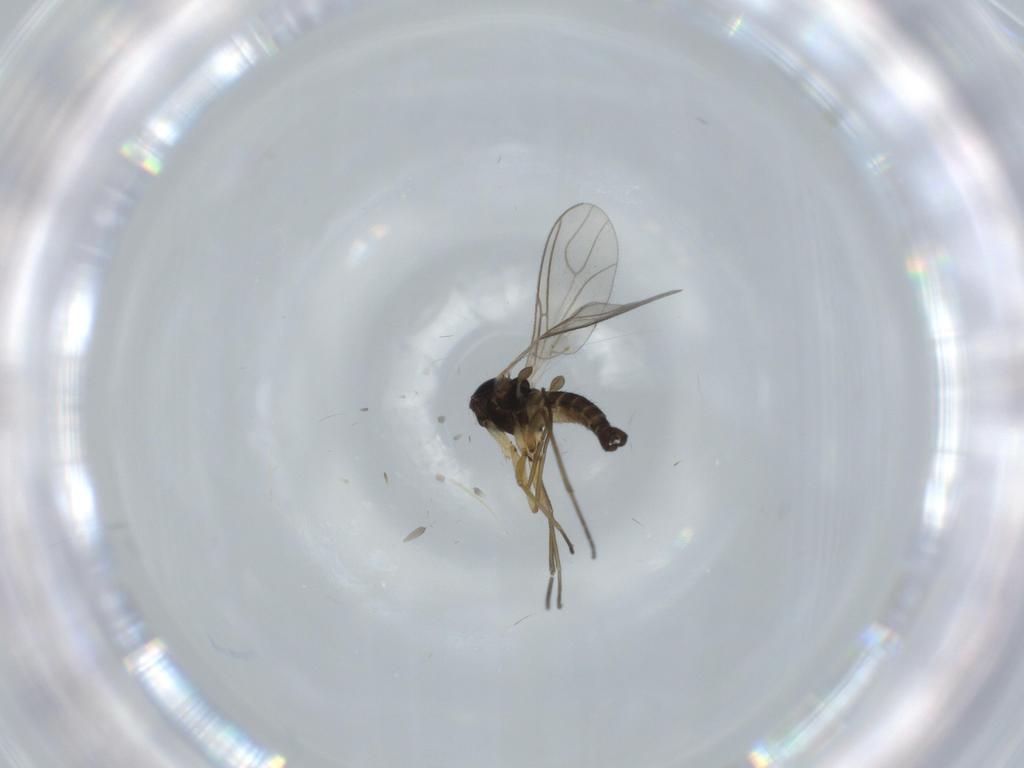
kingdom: Animalia
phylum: Arthropoda
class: Insecta
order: Diptera
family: Sciaridae
